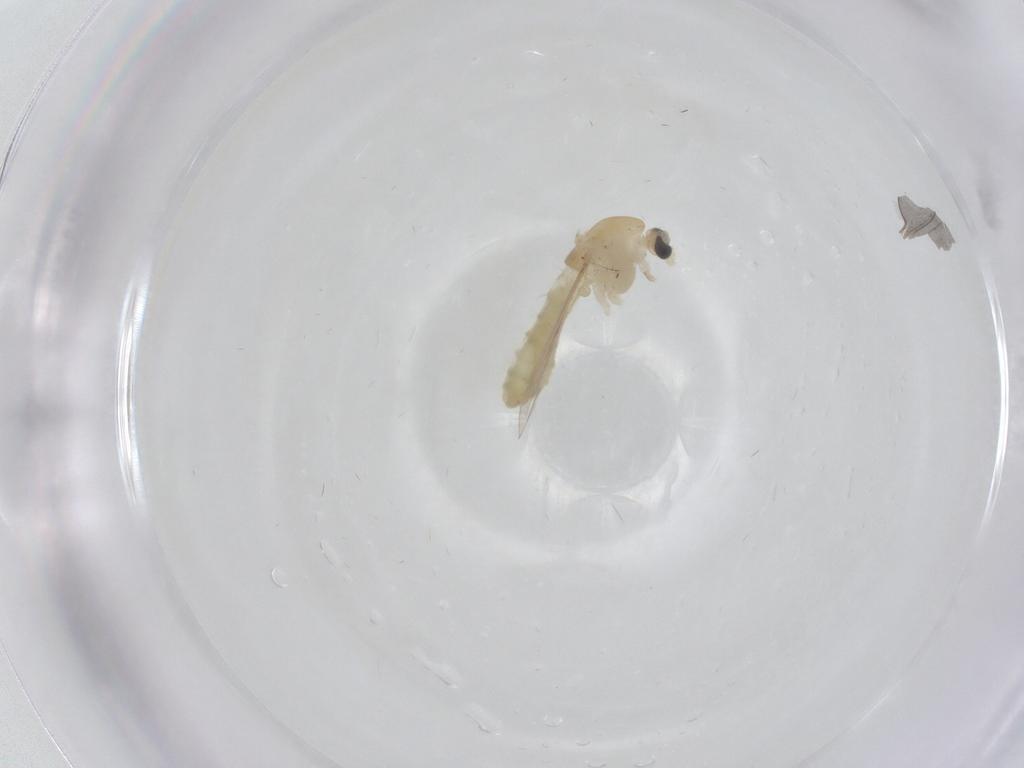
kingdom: Animalia
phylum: Arthropoda
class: Insecta
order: Diptera
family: Chironomidae
